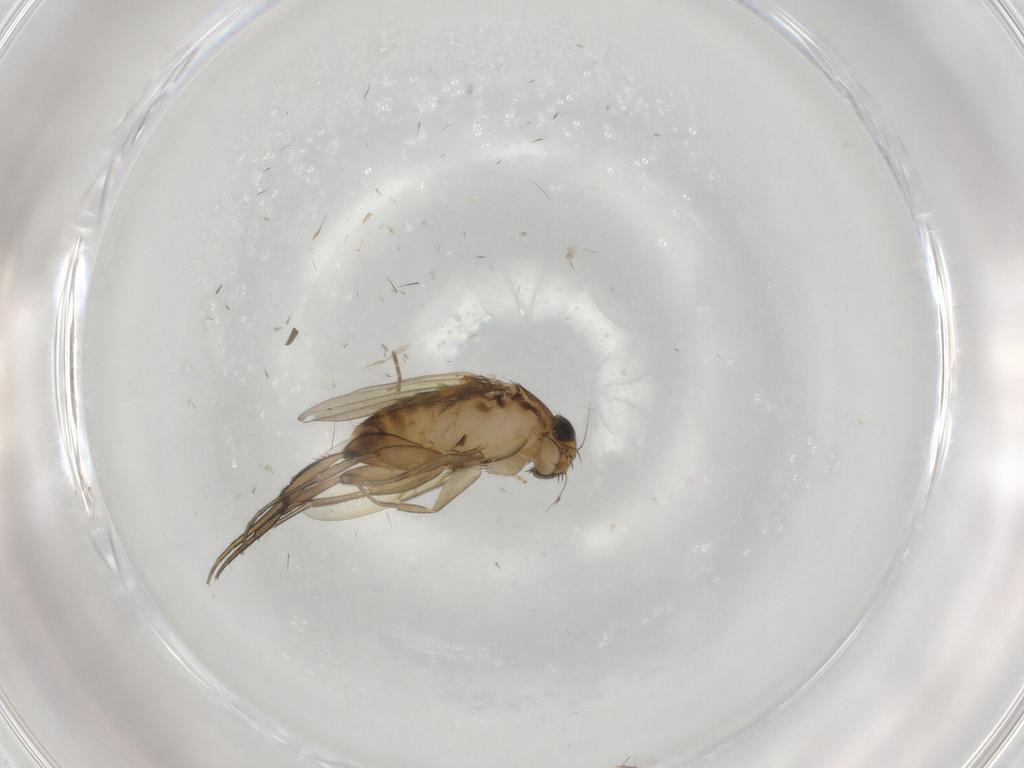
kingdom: Animalia
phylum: Arthropoda
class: Insecta
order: Diptera
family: Phoridae
